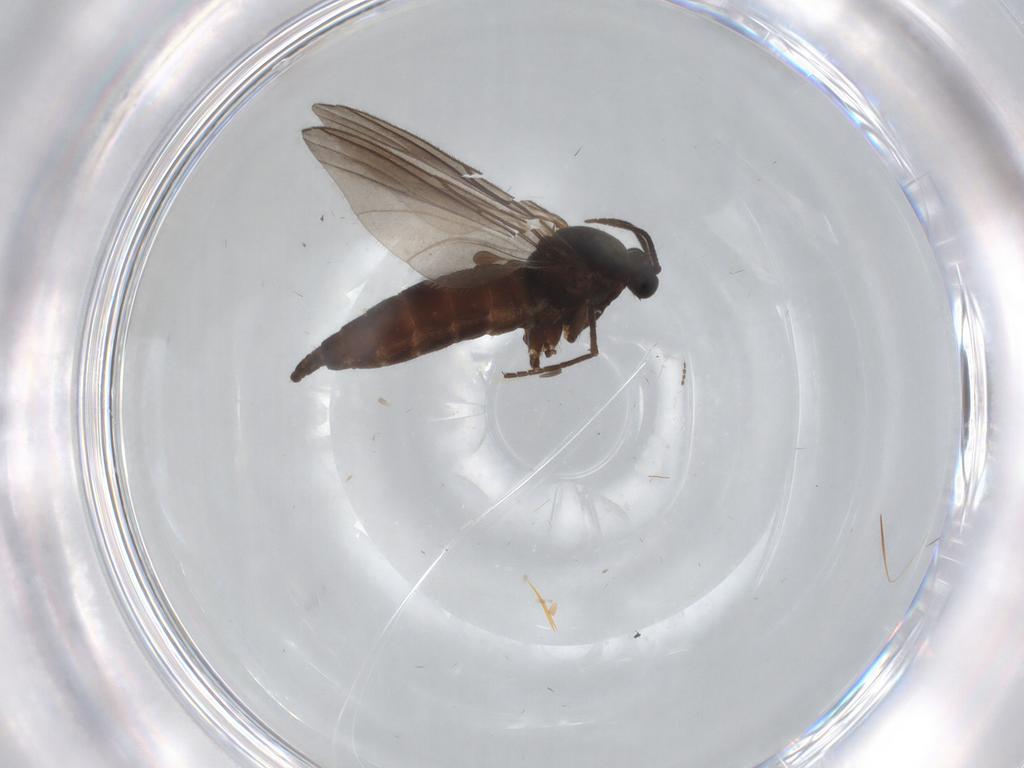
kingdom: Animalia
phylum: Arthropoda
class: Insecta
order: Diptera
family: Sciaridae
